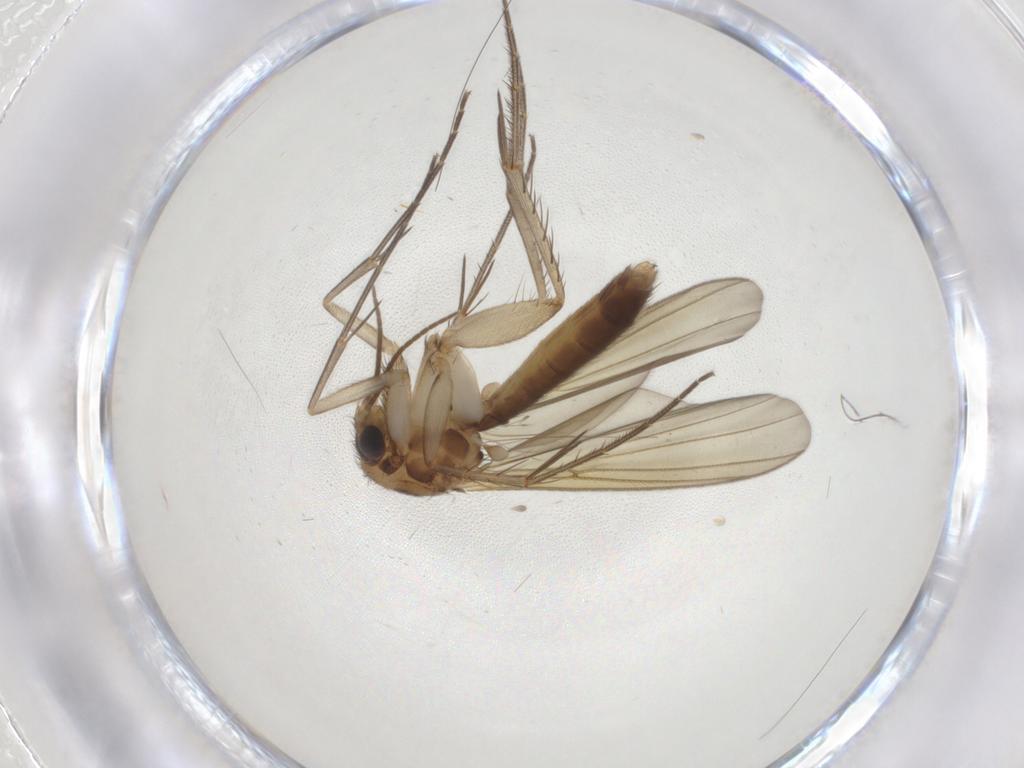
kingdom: Animalia
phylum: Arthropoda
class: Insecta
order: Diptera
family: Mycetophilidae
